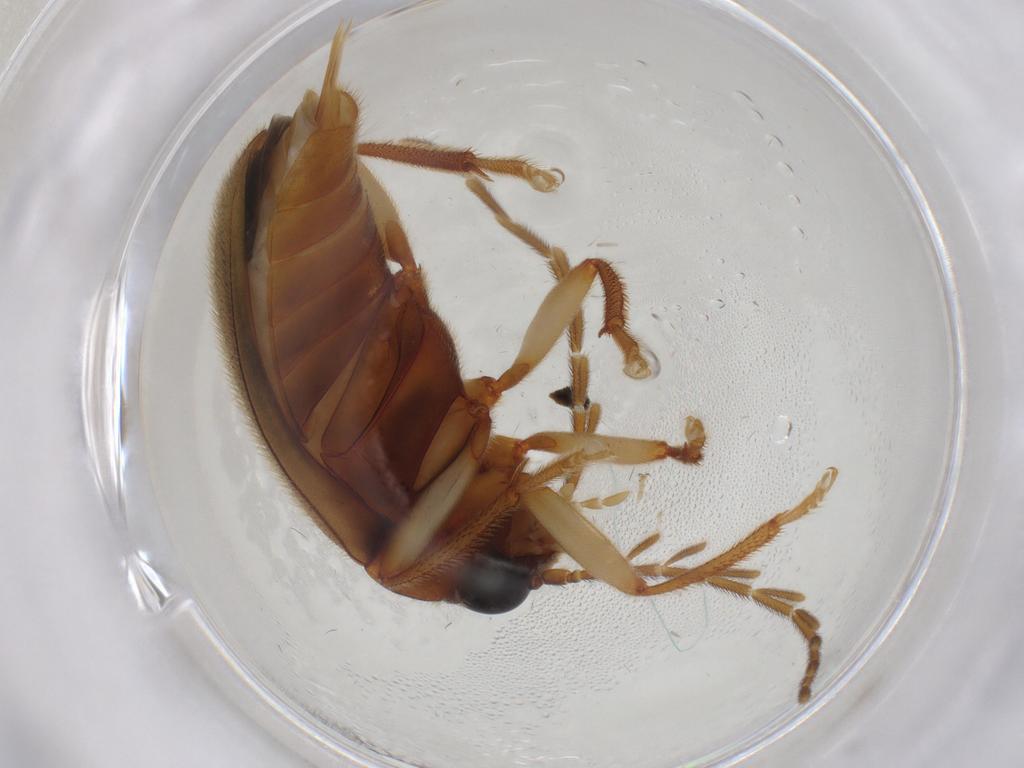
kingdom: Animalia
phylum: Arthropoda
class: Insecta
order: Coleoptera
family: Ptilodactylidae
